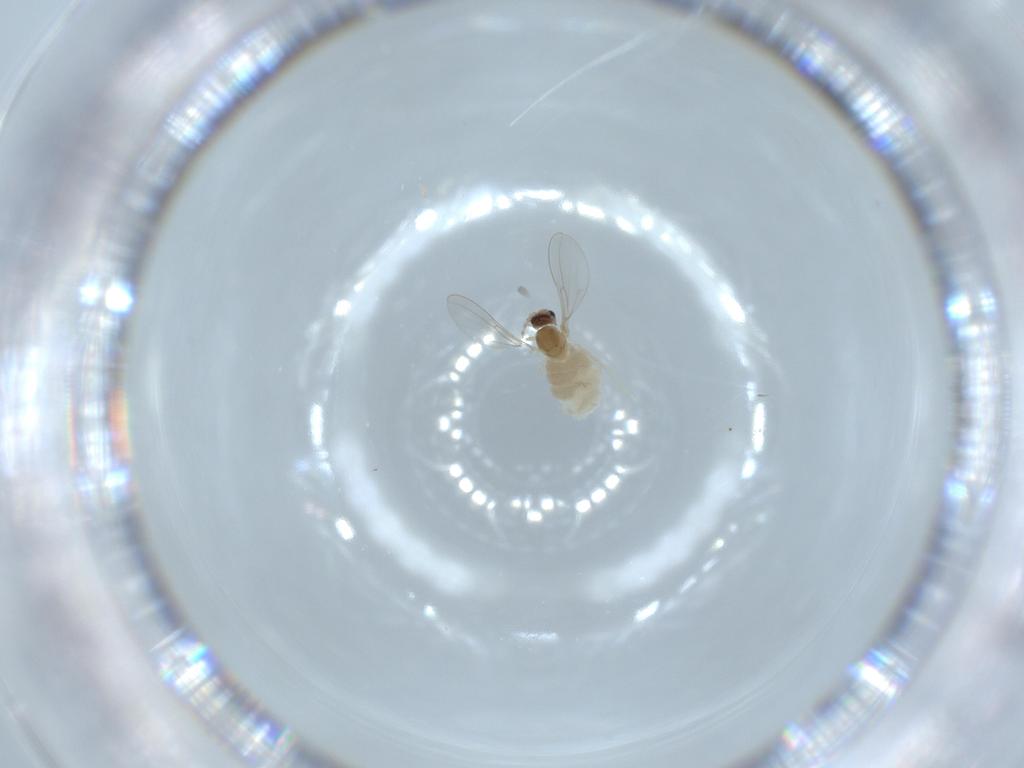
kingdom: Animalia
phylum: Arthropoda
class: Insecta
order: Diptera
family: Cecidomyiidae
